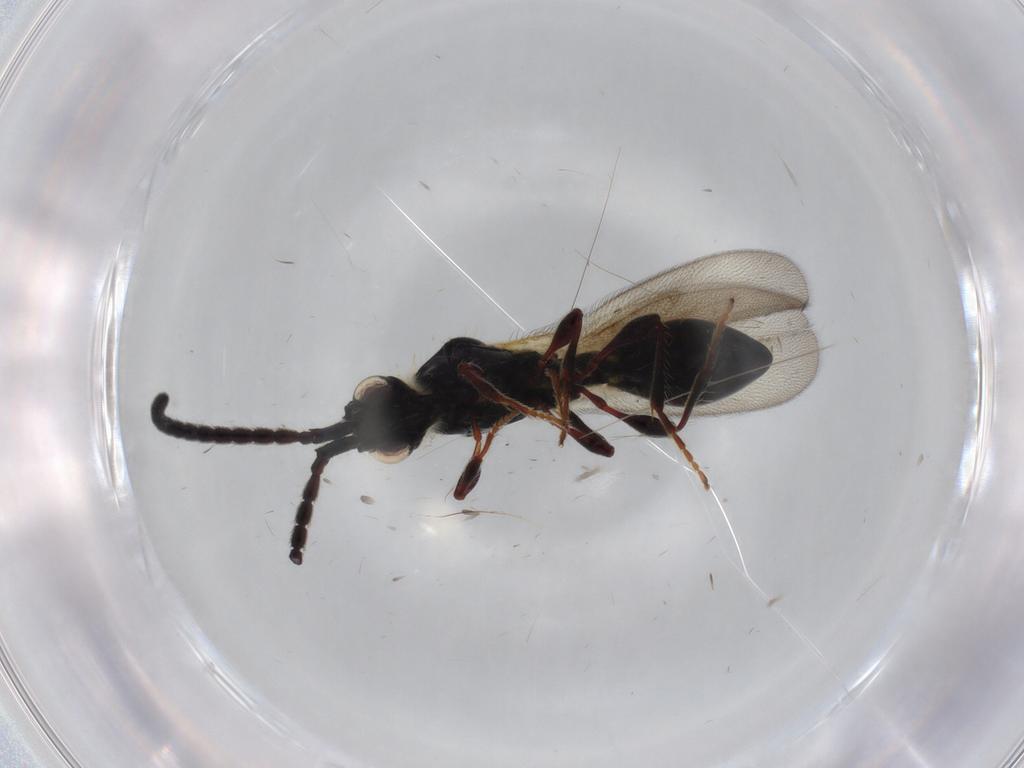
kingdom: Animalia
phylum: Arthropoda
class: Insecta
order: Hymenoptera
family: Diapriidae
